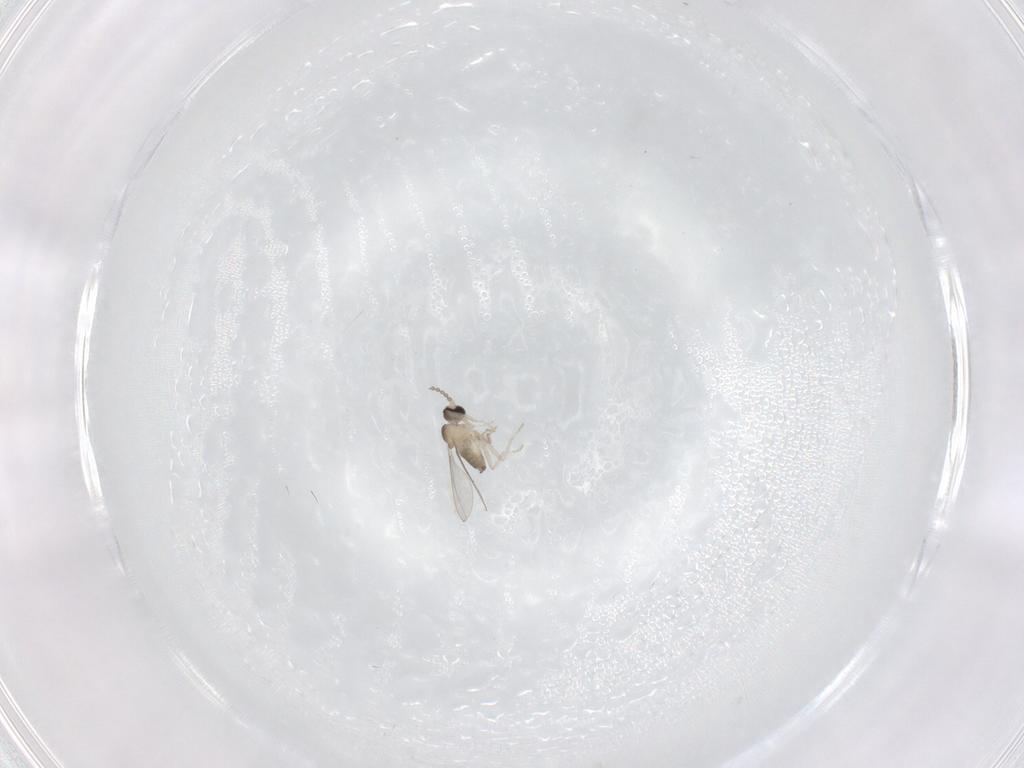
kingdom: Animalia
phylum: Arthropoda
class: Insecta
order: Diptera
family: Cecidomyiidae
